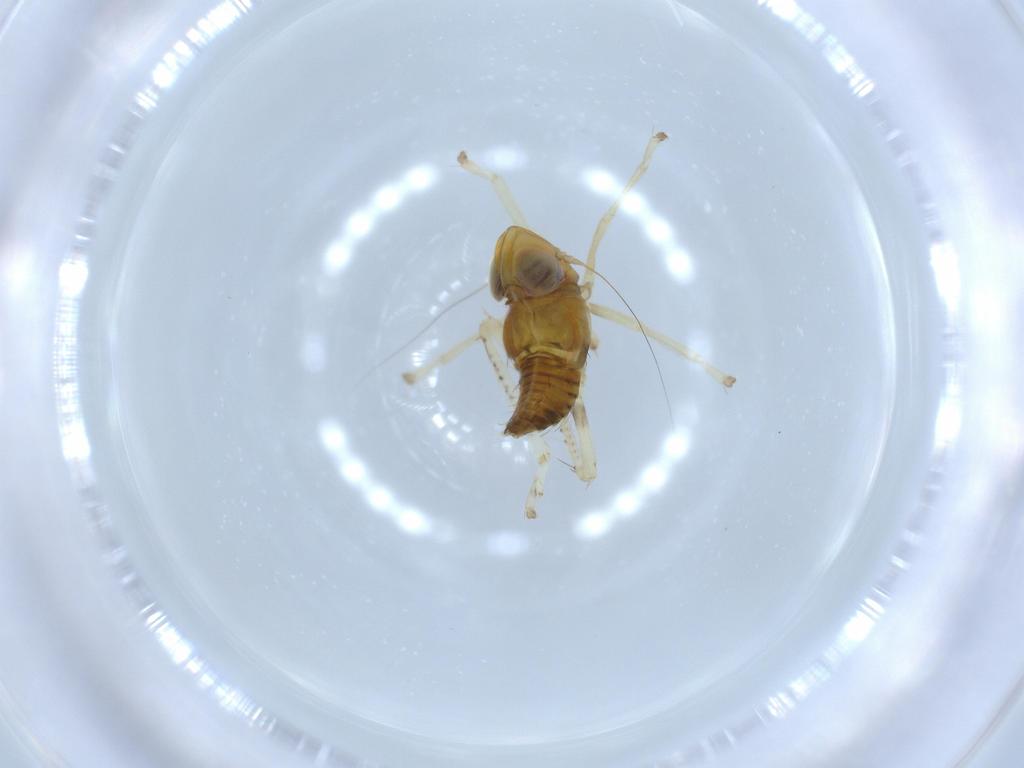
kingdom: Animalia
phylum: Arthropoda
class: Insecta
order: Hemiptera
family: Cicadellidae
